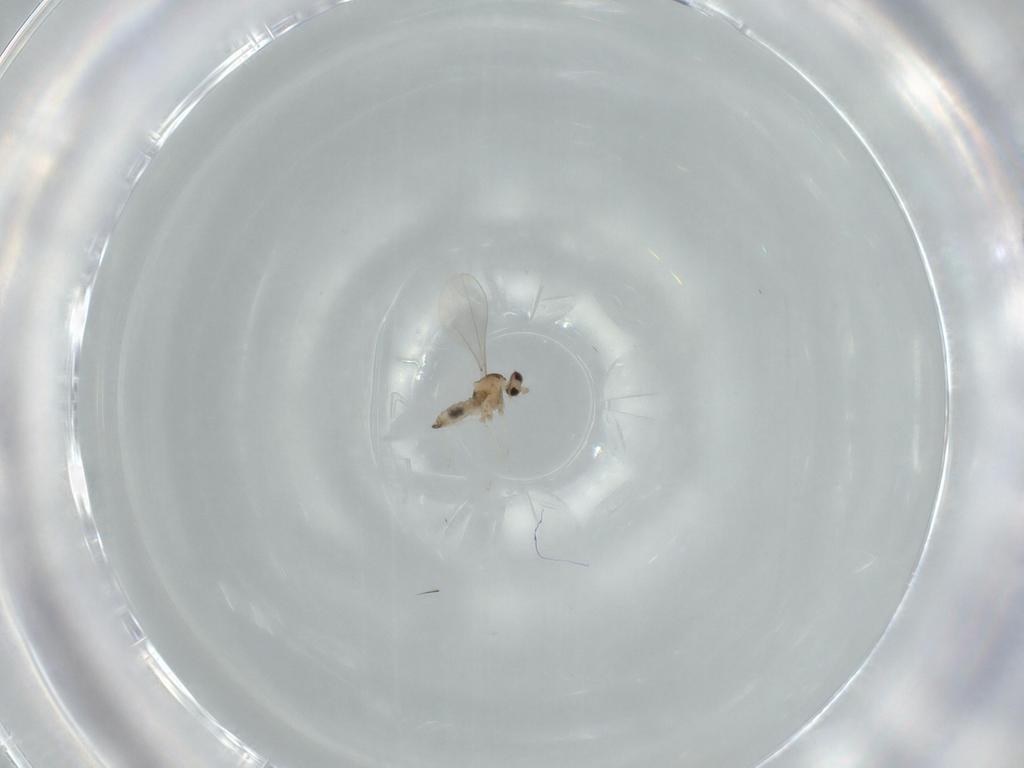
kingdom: Animalia
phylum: Arthropoda
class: Insecta
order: Diptera
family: Cecidomyiidae
